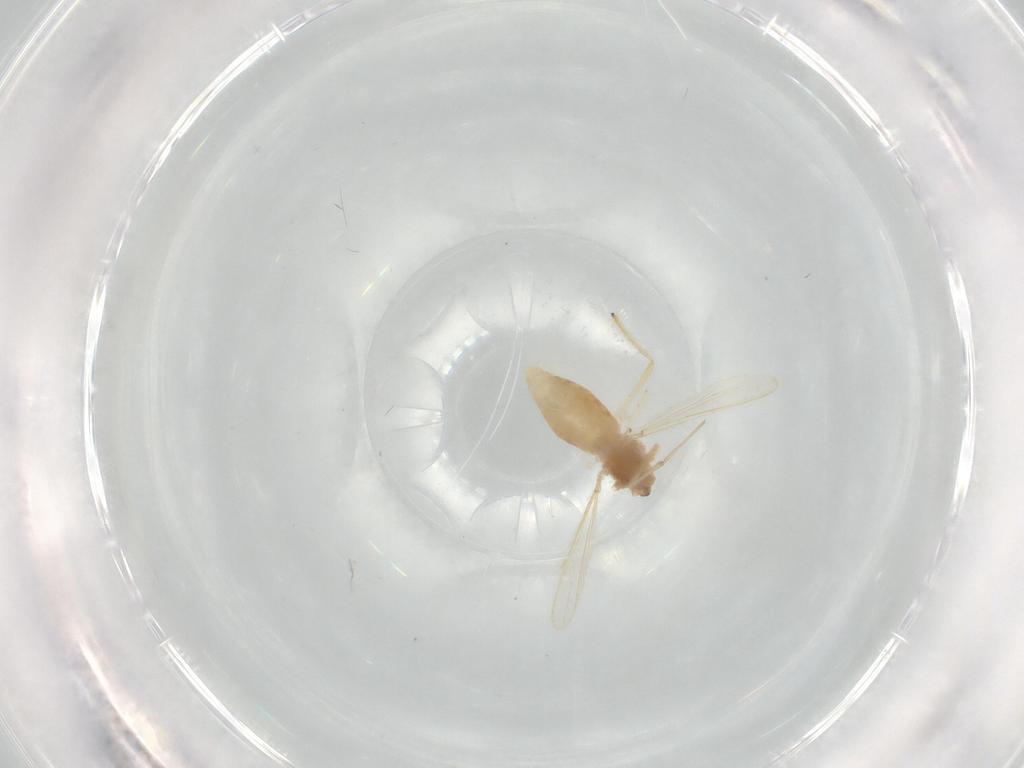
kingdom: Animalia
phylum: Arthropoda
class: Insecta
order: Diptera
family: Chironomidae
